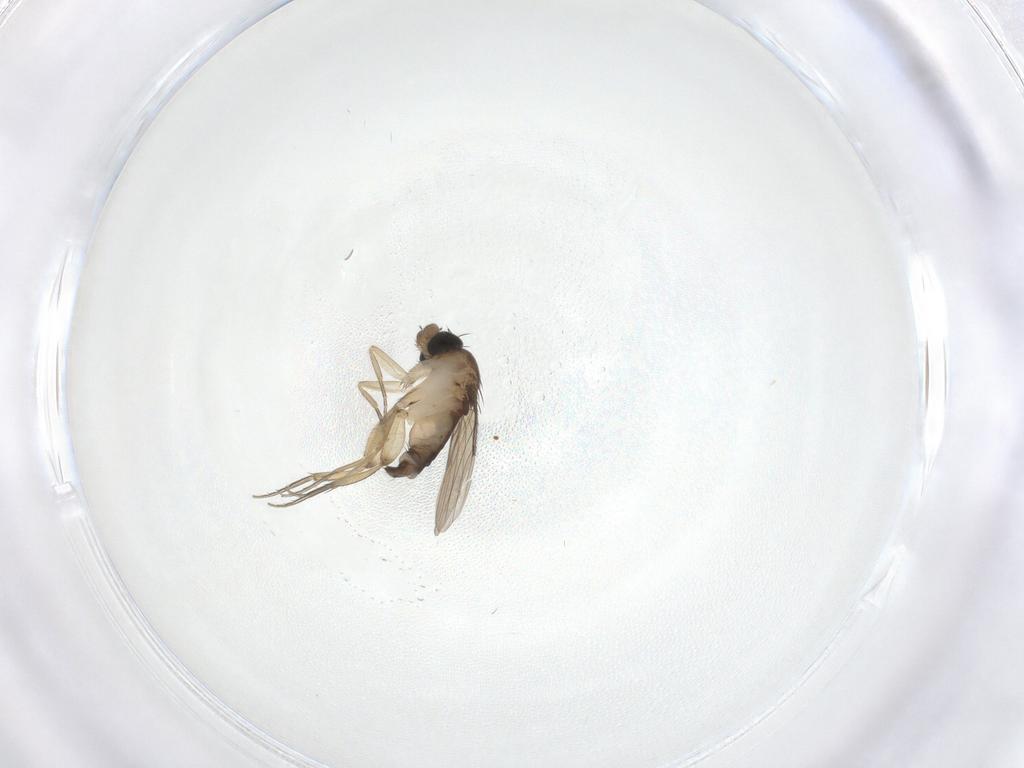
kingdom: Animalia
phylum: Arthropoda
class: Insecta
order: Diptera
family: Phoridae
